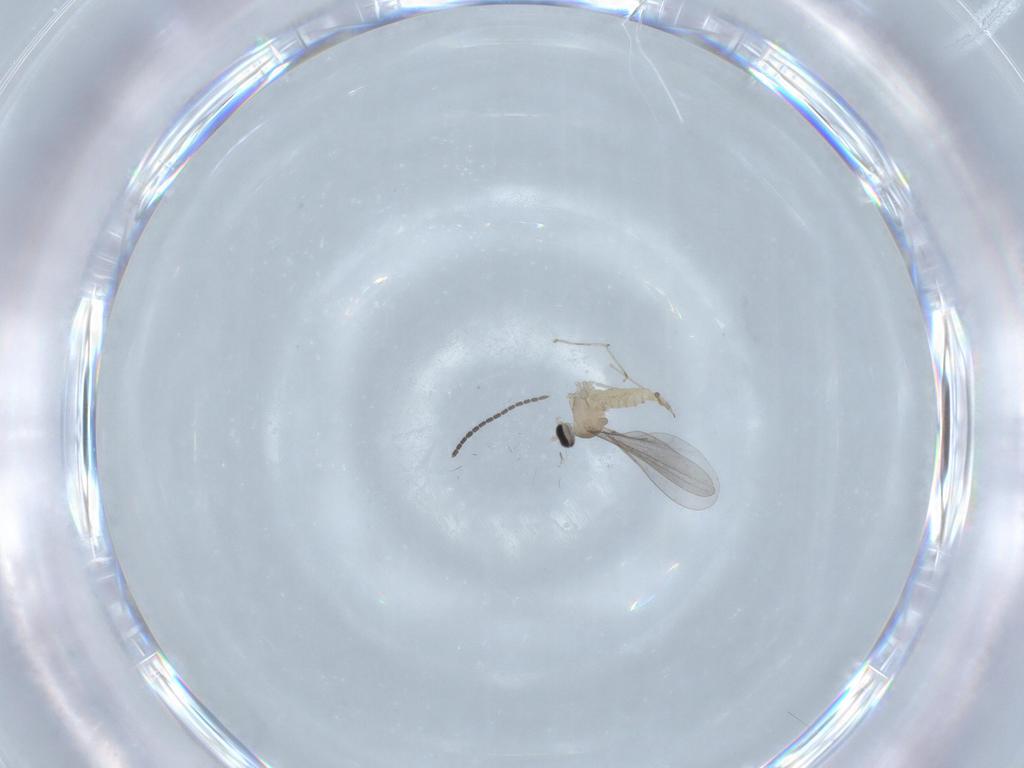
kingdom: Animalia
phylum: Arthropoda
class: Insecta
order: Diptera
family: Cecidomyiidae
